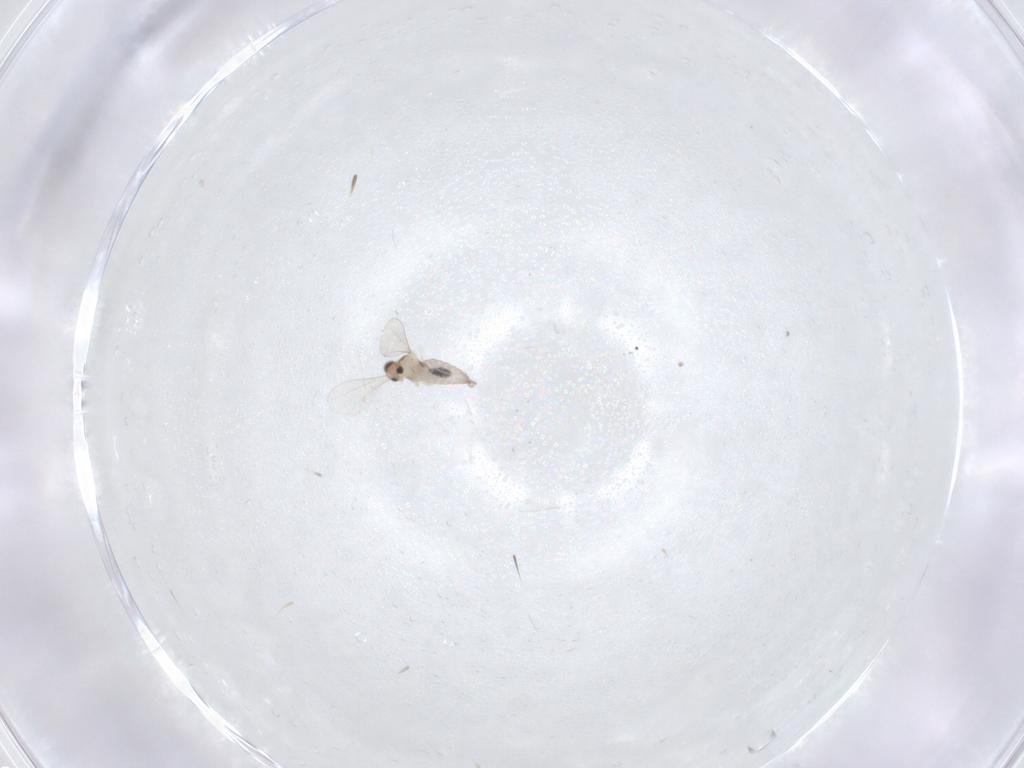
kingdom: Animalia
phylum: Arthropoda
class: Insecta
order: Diptera
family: Cecidomyiidae
